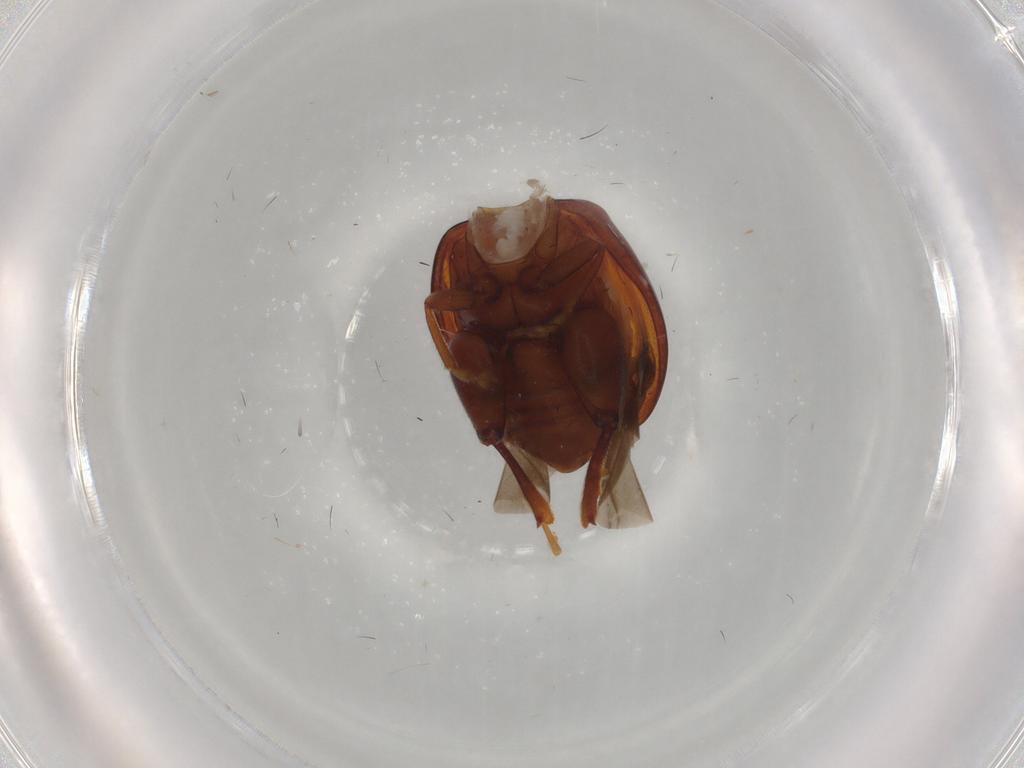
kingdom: Animalia
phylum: Arthropoda
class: Insecta
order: Coleoptera
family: Chrysomelidae
